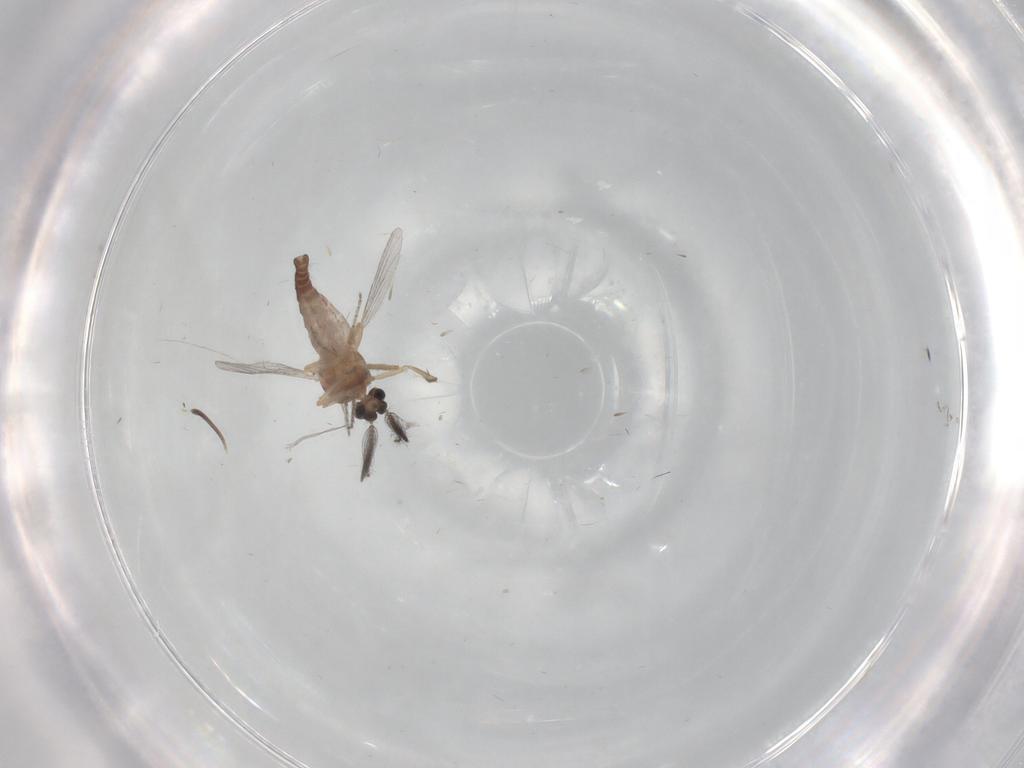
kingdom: Animalia
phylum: Arthropoda
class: Insecta
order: Diptera
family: Ceratopogonidae
